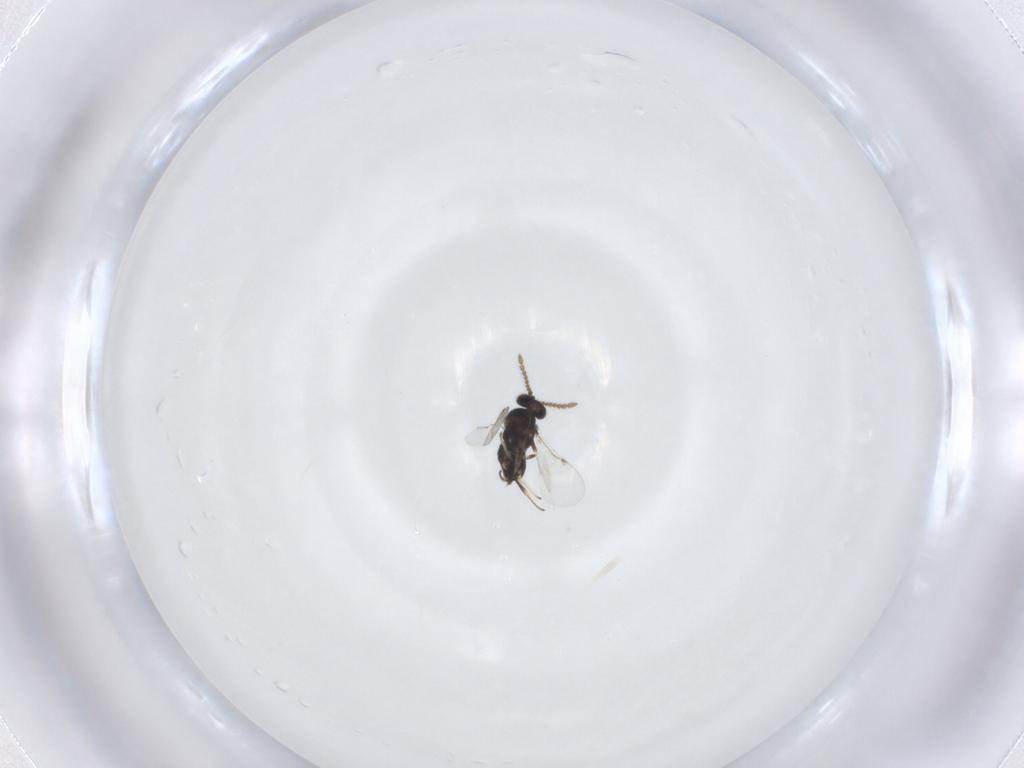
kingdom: Animalia
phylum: Arthropoda
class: Insecta
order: Hymenoptera
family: Encyrtidae
